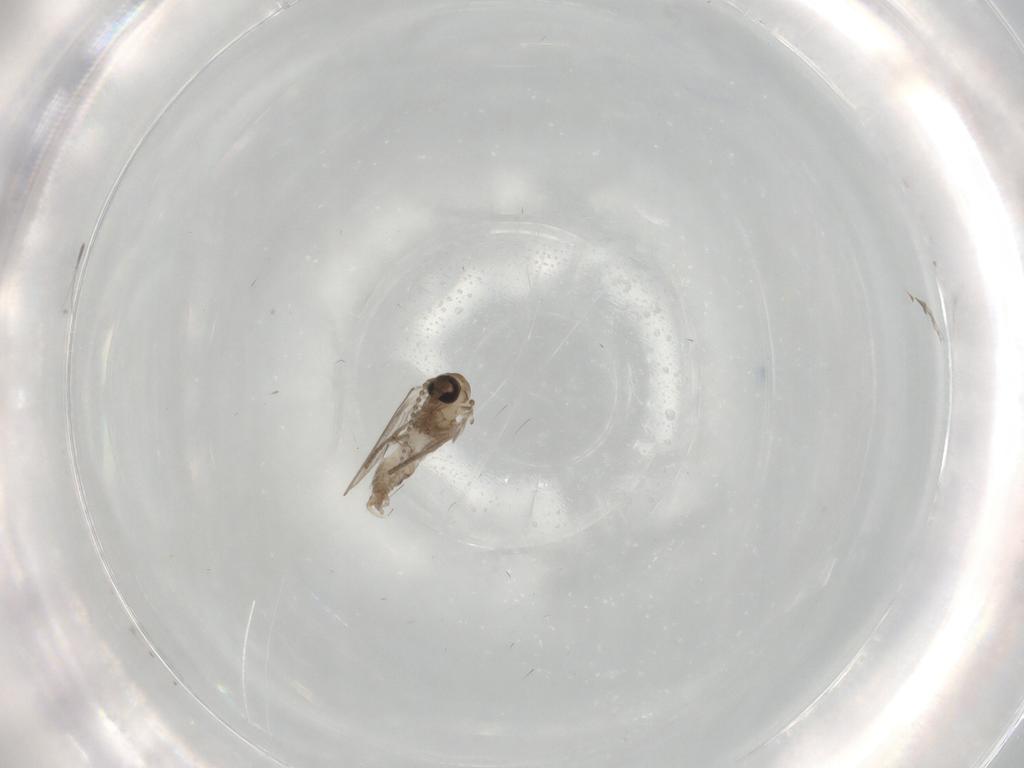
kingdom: Animalia
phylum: Arthropoda
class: Insecta
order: Diptera
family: Psychodidae
